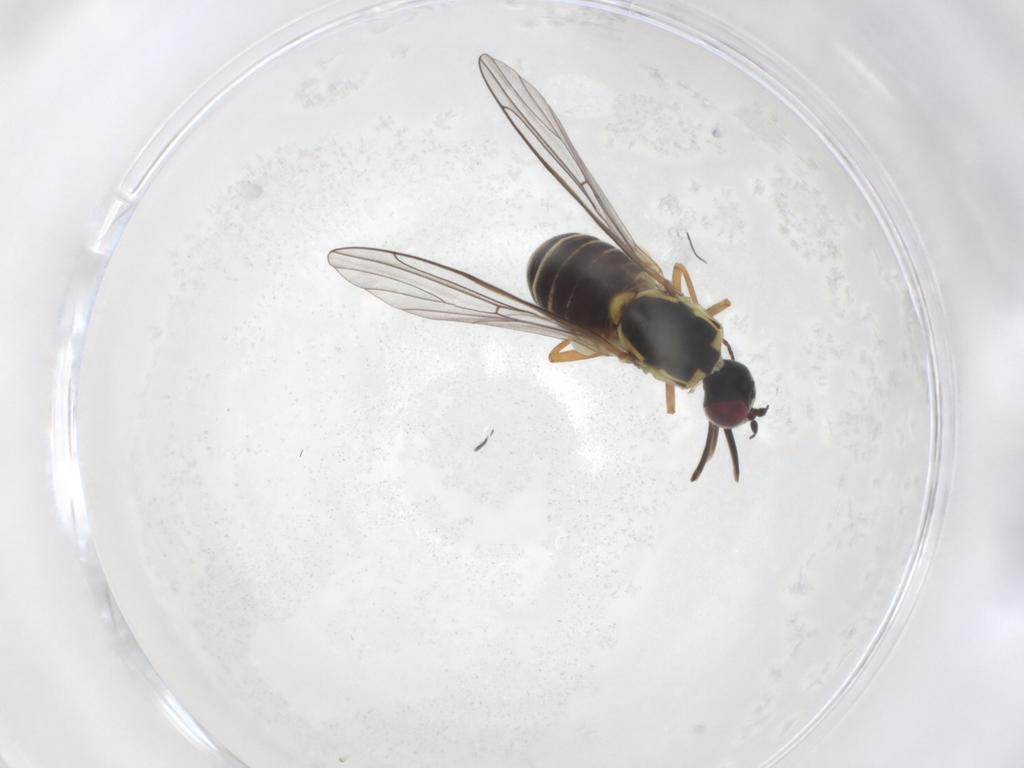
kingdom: Animalia
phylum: Arthropoda
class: Insecta
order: Diptera
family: Bombyliidae
